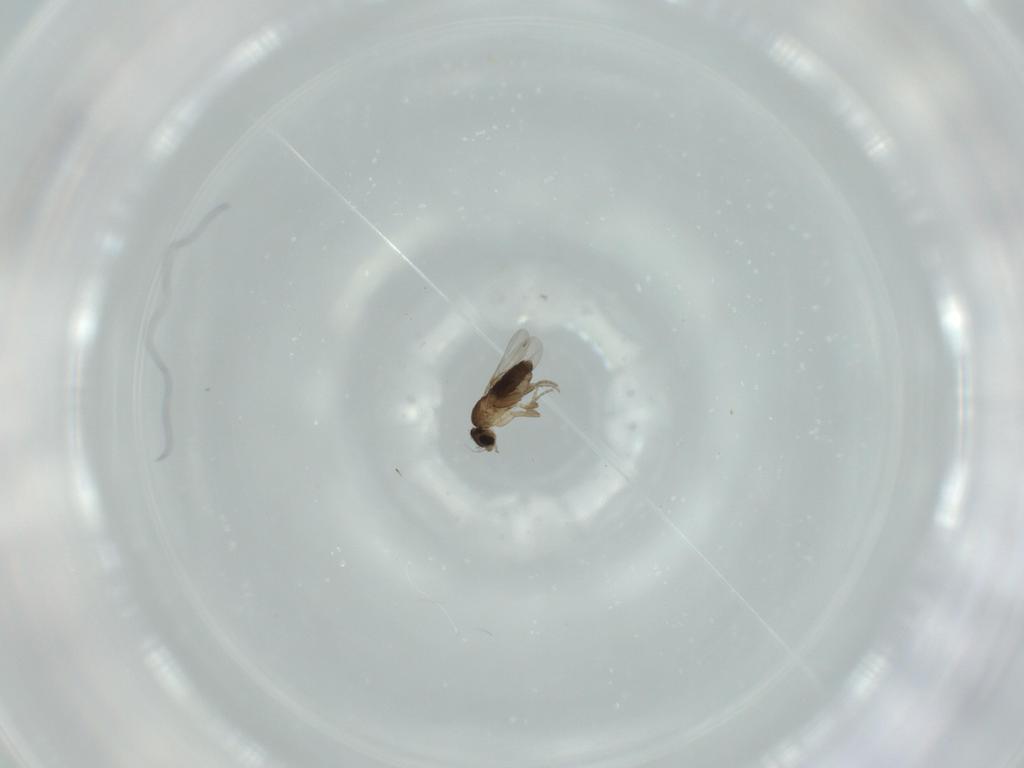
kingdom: Animalia
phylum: Arthropoda
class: Insecta
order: Diptera
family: Phoridae
